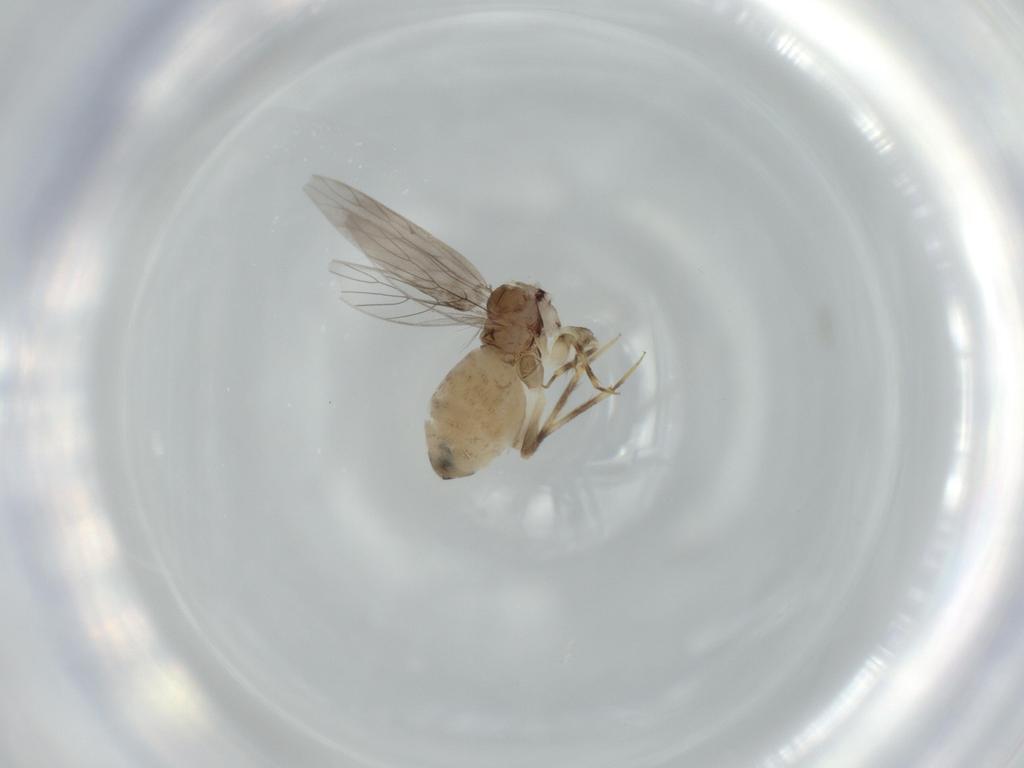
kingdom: Animalia
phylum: Arthropoda
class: Insecta
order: Psocodea
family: Lepidopsocidae
